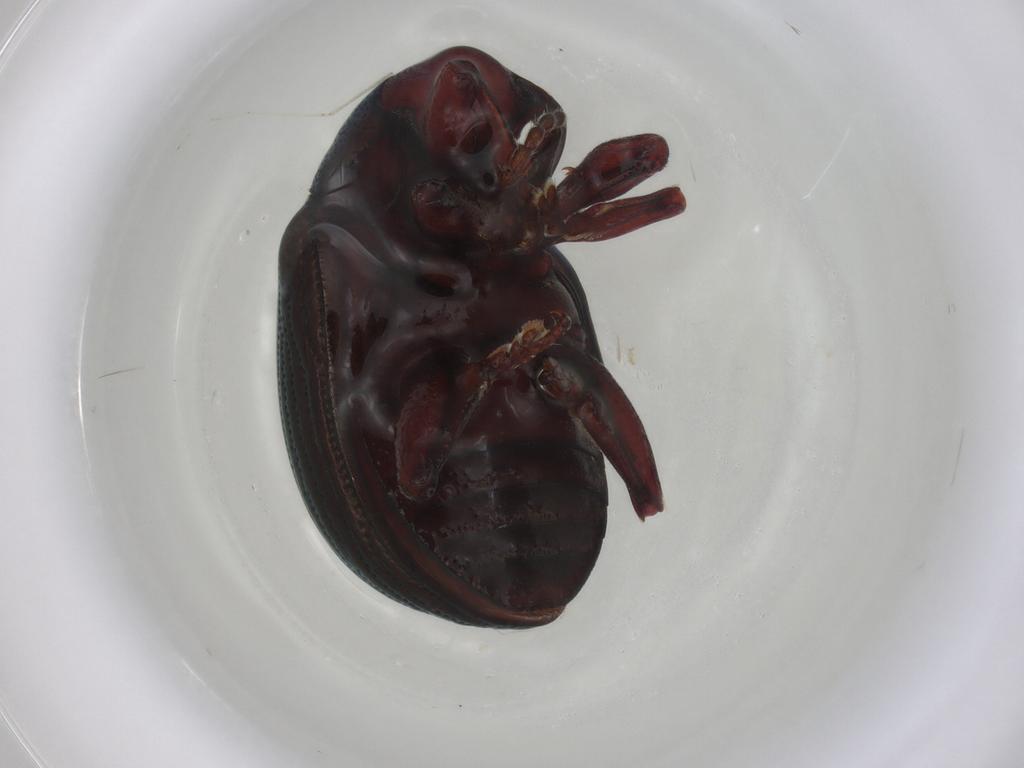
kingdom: Animalia
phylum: Arthropoda
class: Insecta
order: Coleoptera
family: Chrysomelidae
